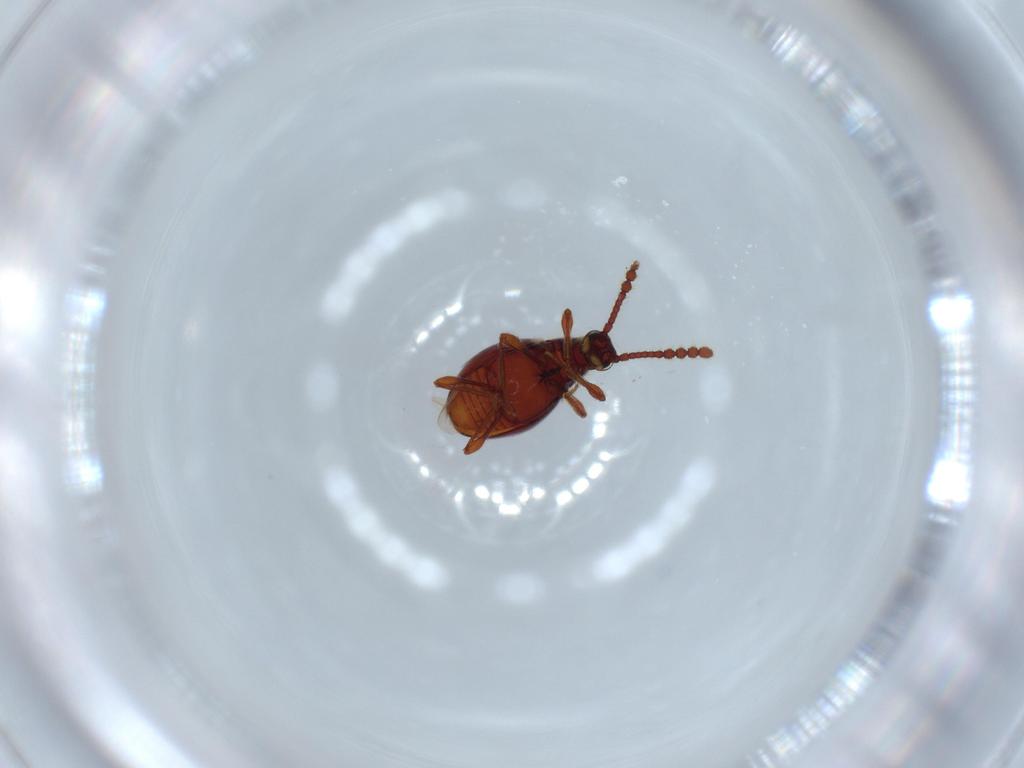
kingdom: Animalia
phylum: Arthropoda
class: Insecta
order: Coleoptera
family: Staphylinidae
